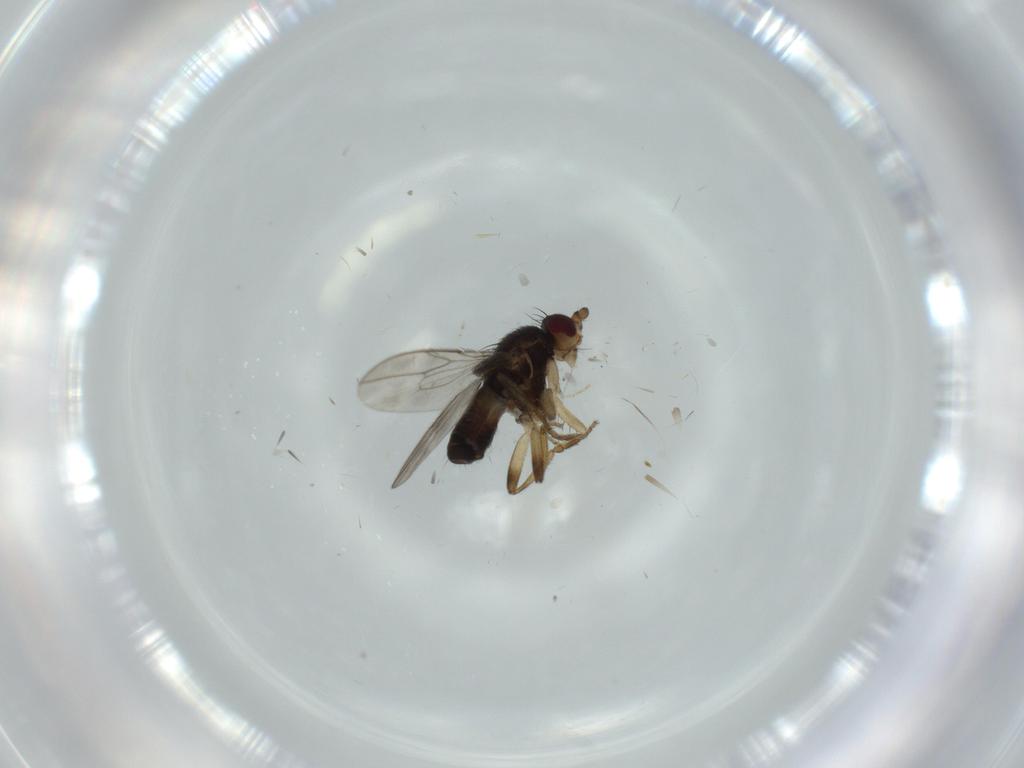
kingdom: Animalia
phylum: Arthropoda
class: Insecta
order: Diptera
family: Sphaeroceridae
